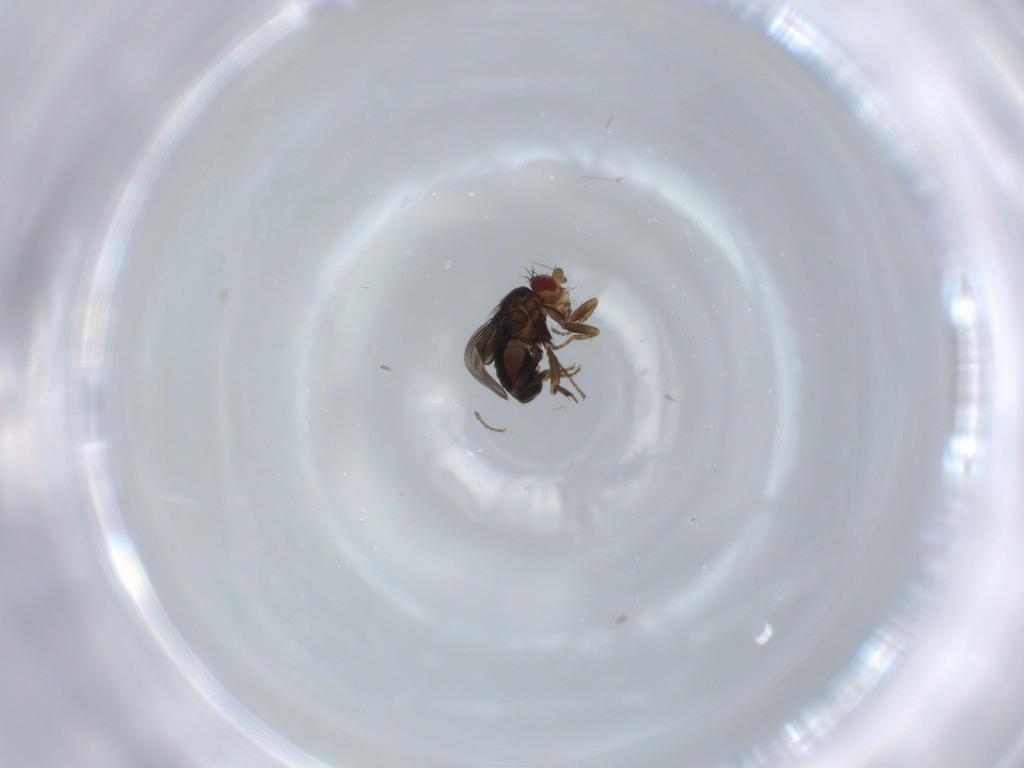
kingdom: Animalia
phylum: Arthropoda
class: Insecta
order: Diptera
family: Sphaeroceridae
